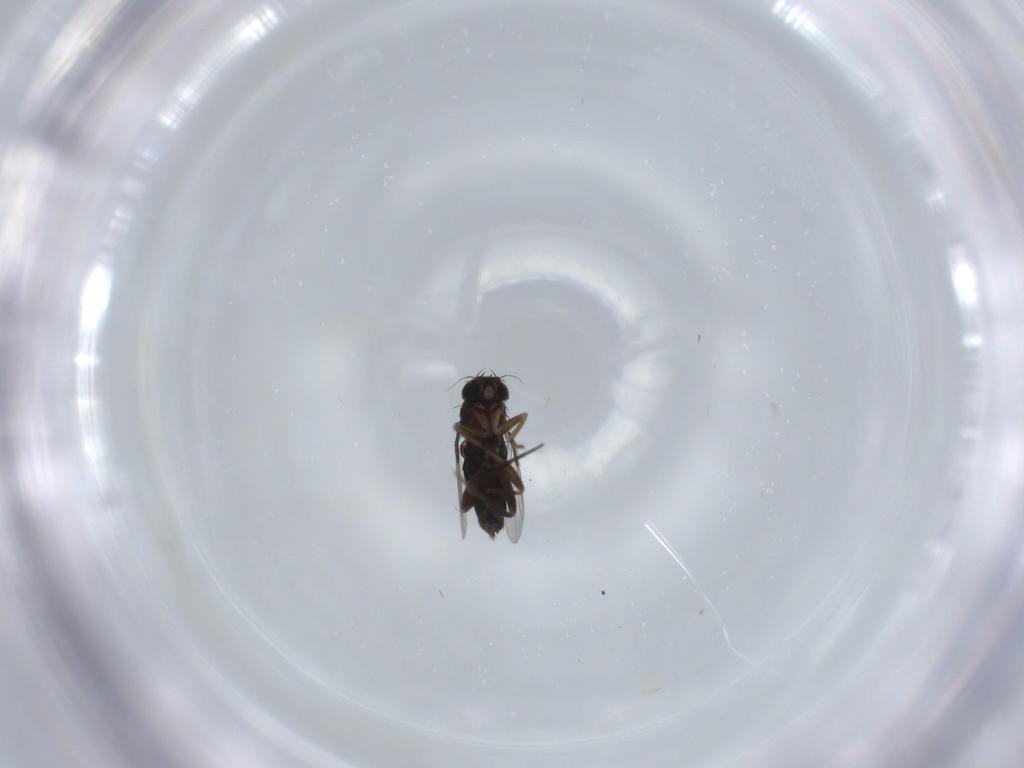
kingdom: Animalia
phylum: Arthropoda
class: Insecta
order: Diptera
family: Phoridae
